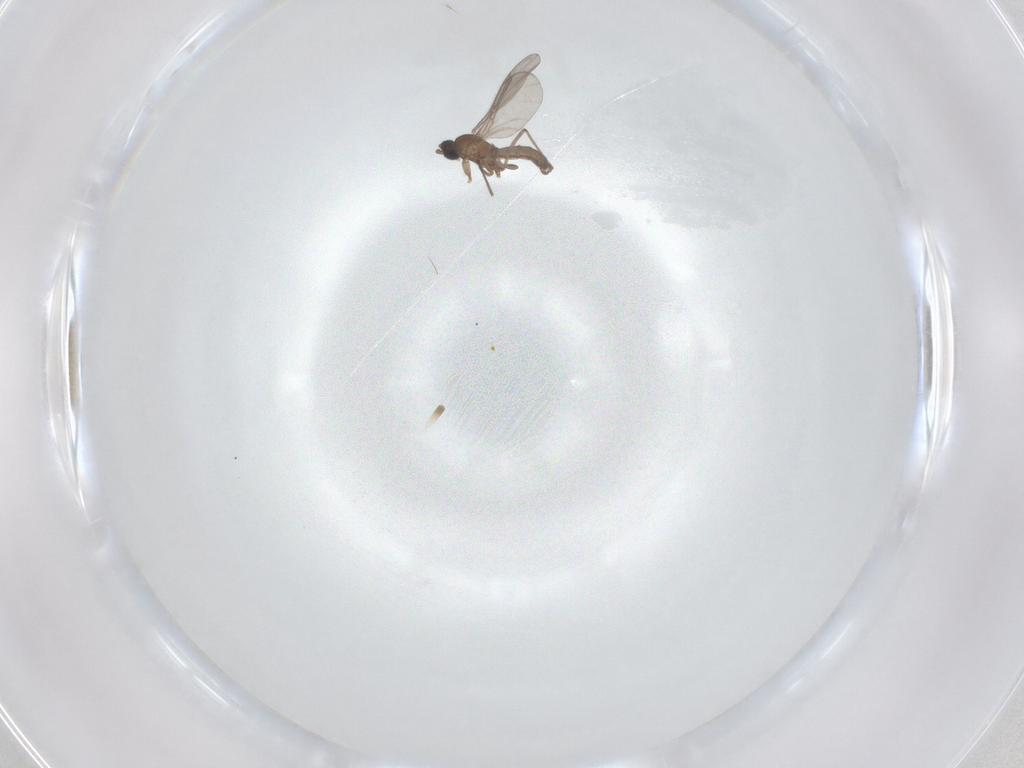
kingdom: Animalia
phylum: Arthropoda
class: Insecta
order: Diptera
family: Sciaridae
